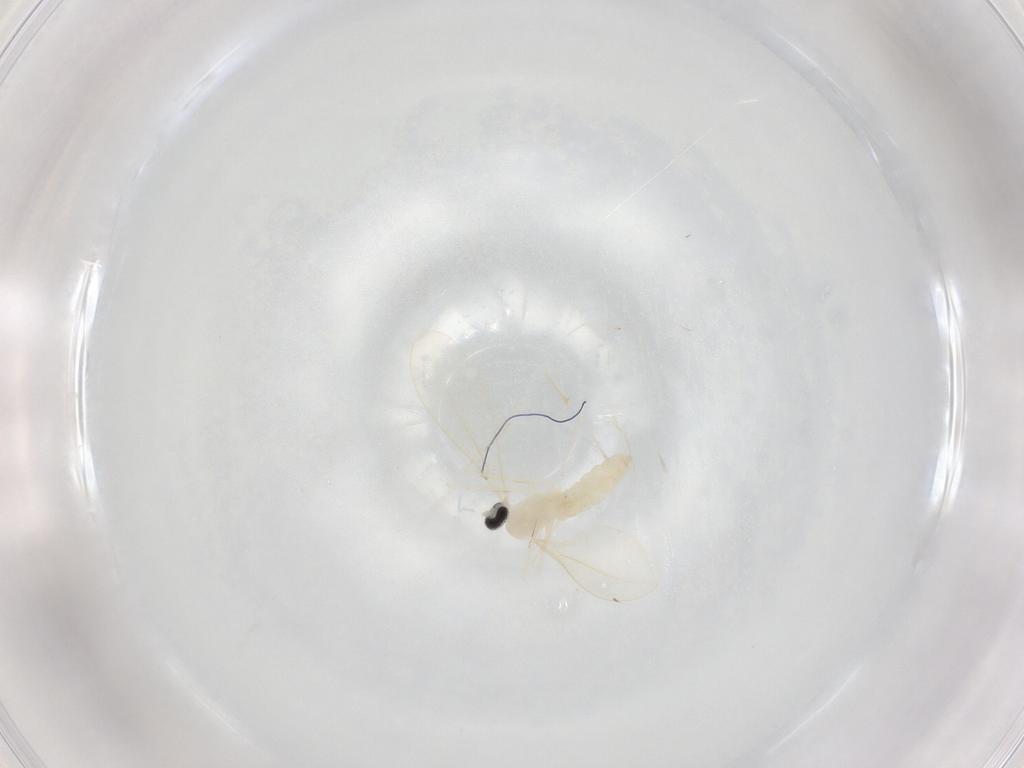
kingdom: Animalia
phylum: Arthropoda
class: Insecta
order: Diptera
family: Cecidomyiidae
